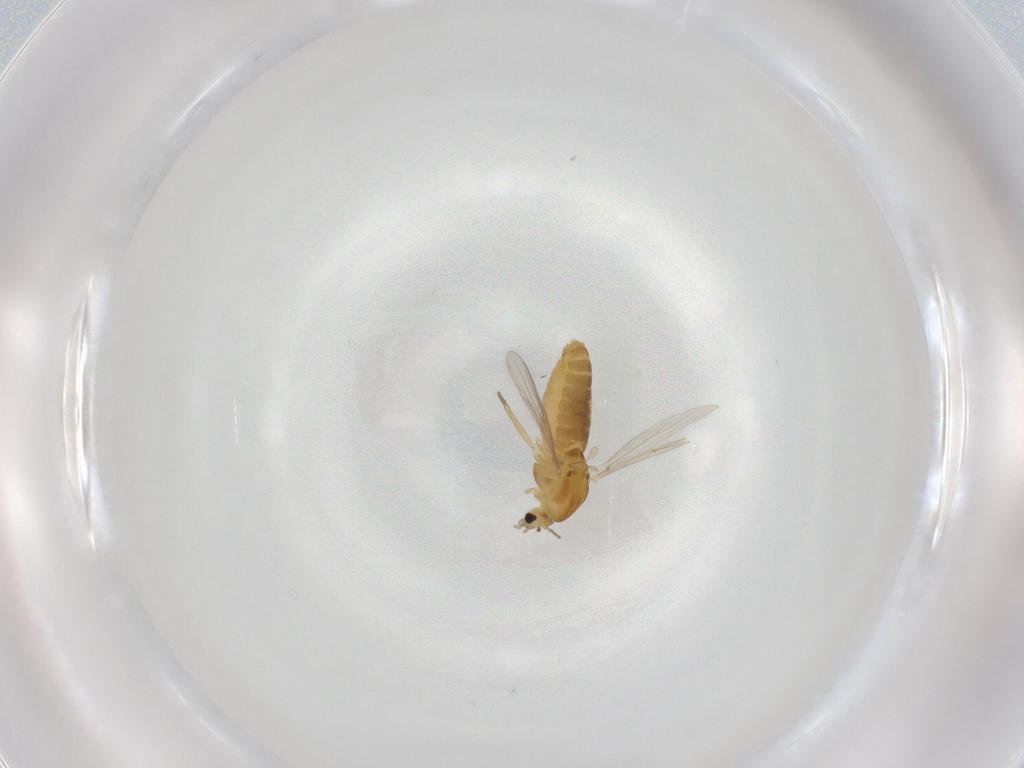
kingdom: Animalia
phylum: Arthropoda
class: Insecta
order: Diptera
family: Chironomidae
